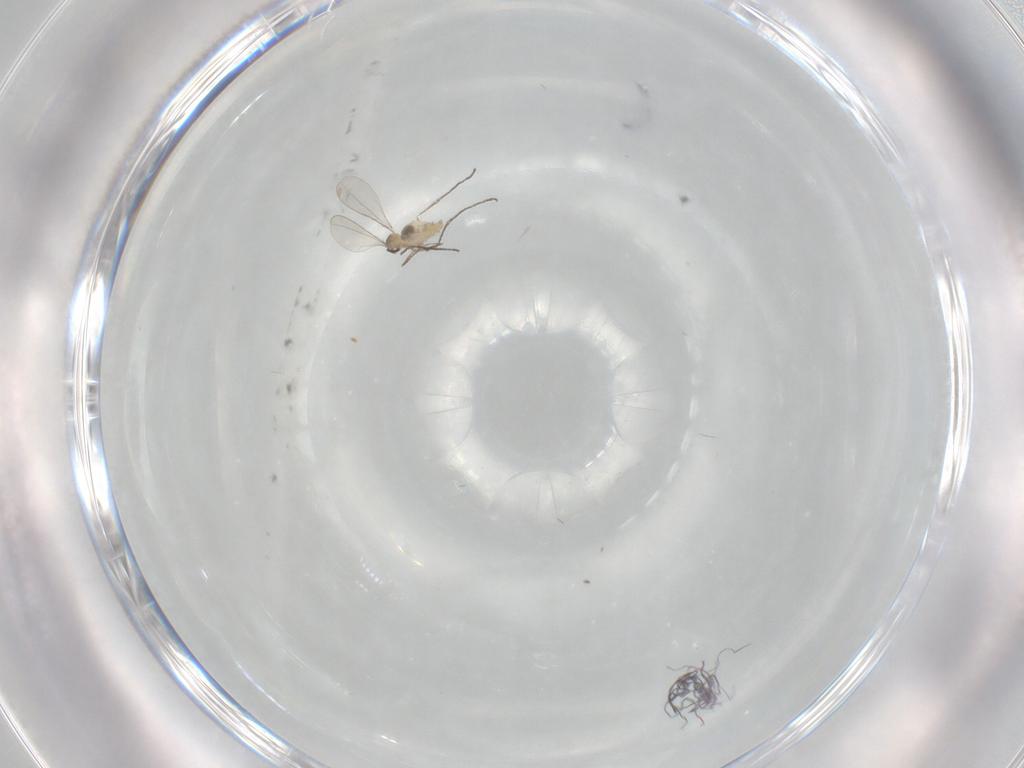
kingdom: Animalia
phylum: Arthropoda
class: Insecta
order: Diptera
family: Cecidomyiidae
